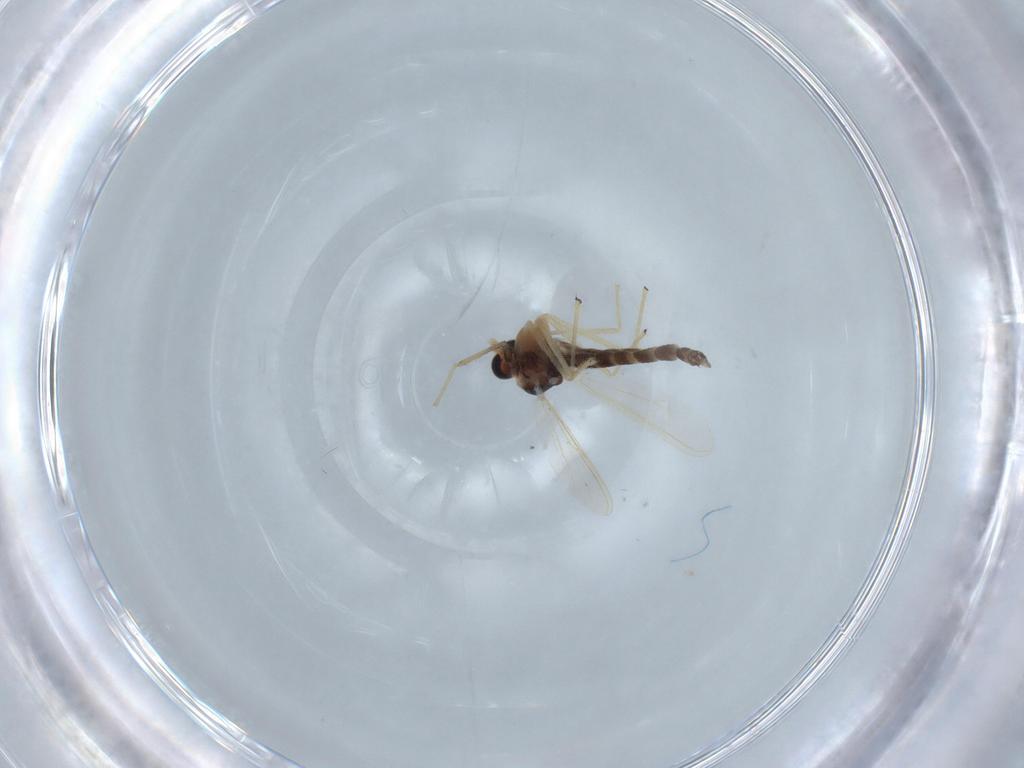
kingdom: Animalia
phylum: Arthropoda
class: Insecta
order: Diptera
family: Chironomidae
